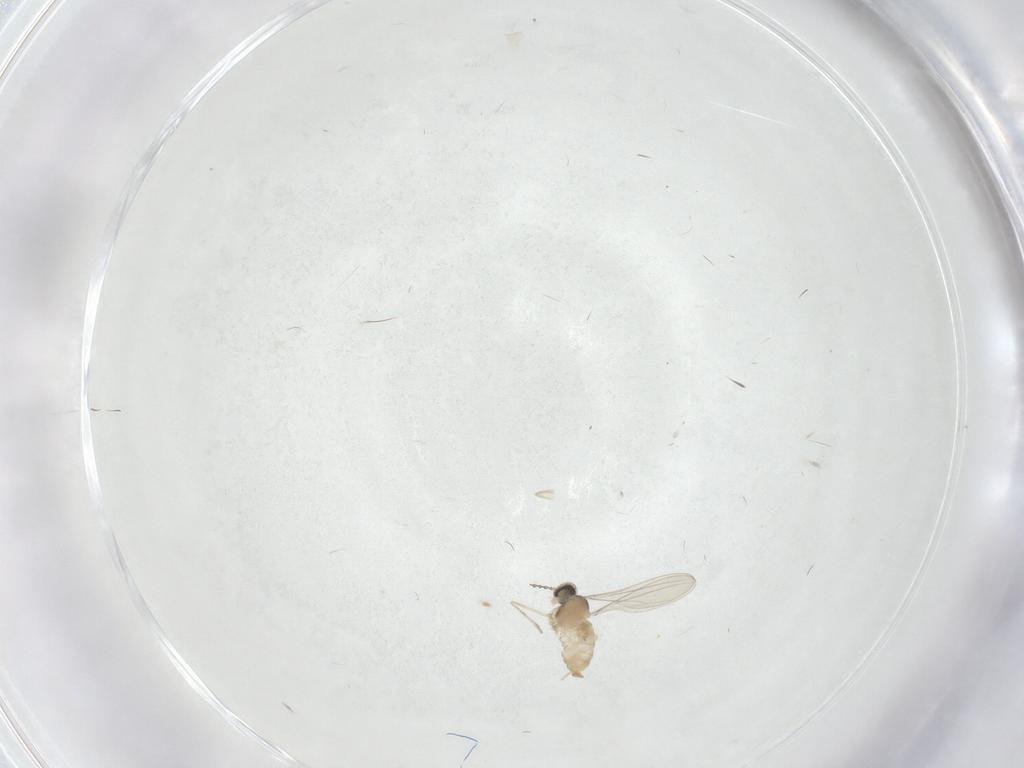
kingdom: Animalia
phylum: Arthropoda
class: Insecta
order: Diptera
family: Cecidomyiidae
